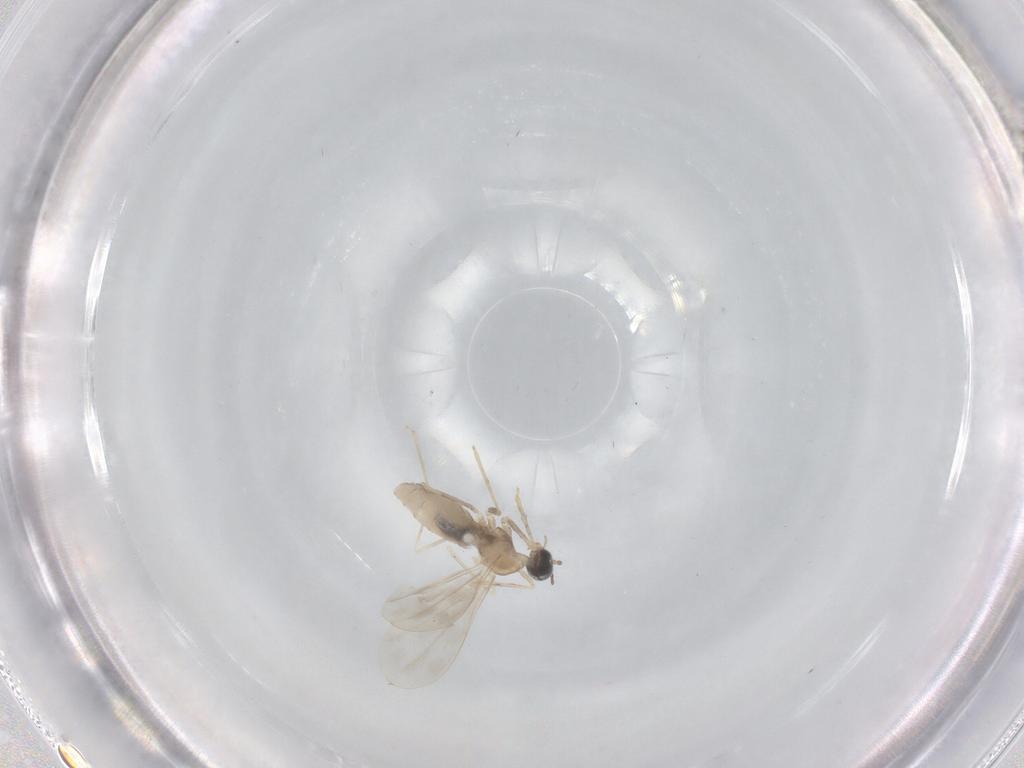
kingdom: Animalia
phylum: Arthropoda
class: Insecta
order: Diptera
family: Cecidomyiidae
